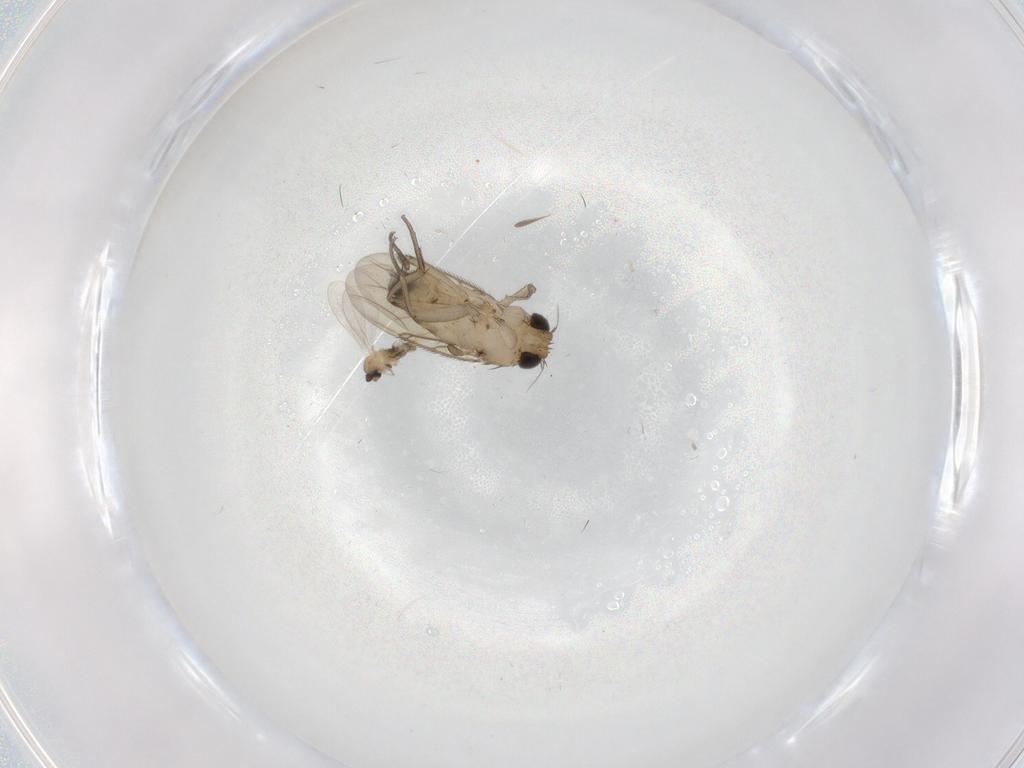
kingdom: Animalia
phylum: Arthropoda
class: Insecta
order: Diptera
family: Phoridae
